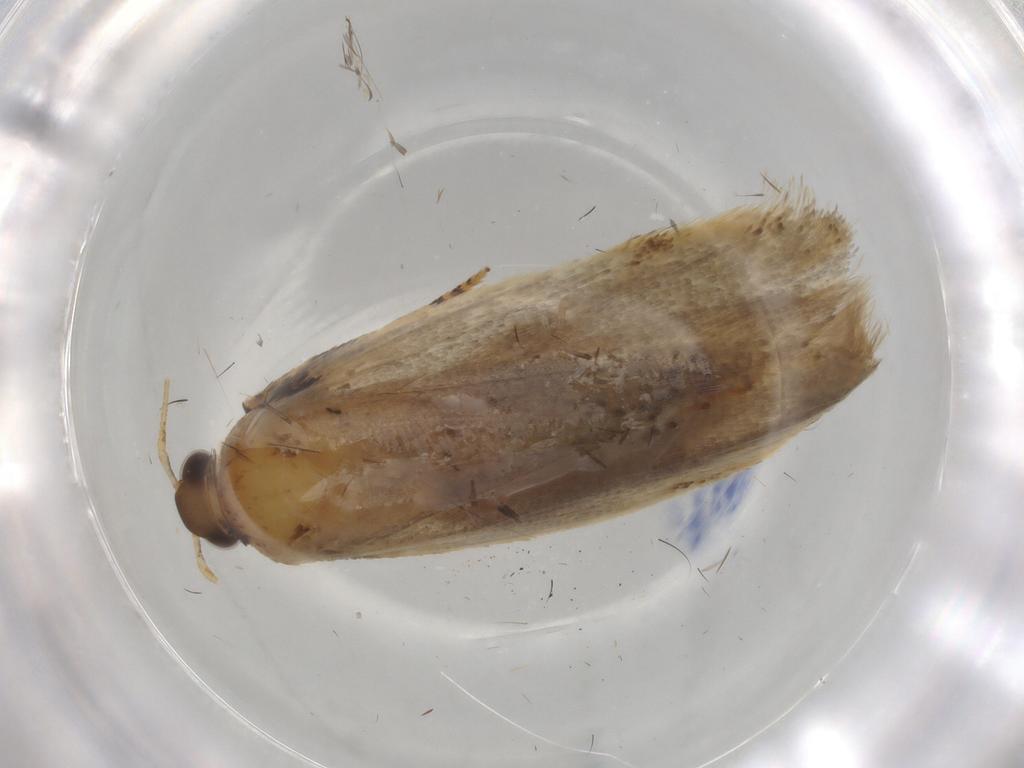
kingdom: Animalia
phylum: Arthropoda
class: Insecta
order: Lepidoptera
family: Gelechiidae
